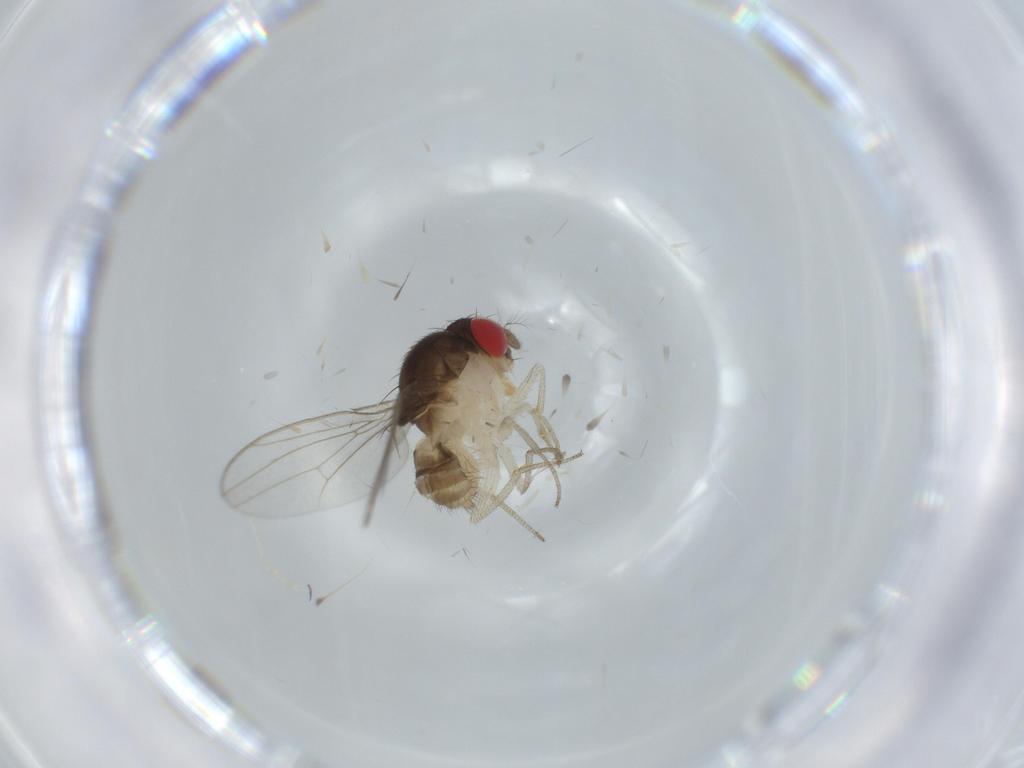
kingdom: Animalia
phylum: Arthropoda
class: Insecta
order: Diptera
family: Drosophilidae
